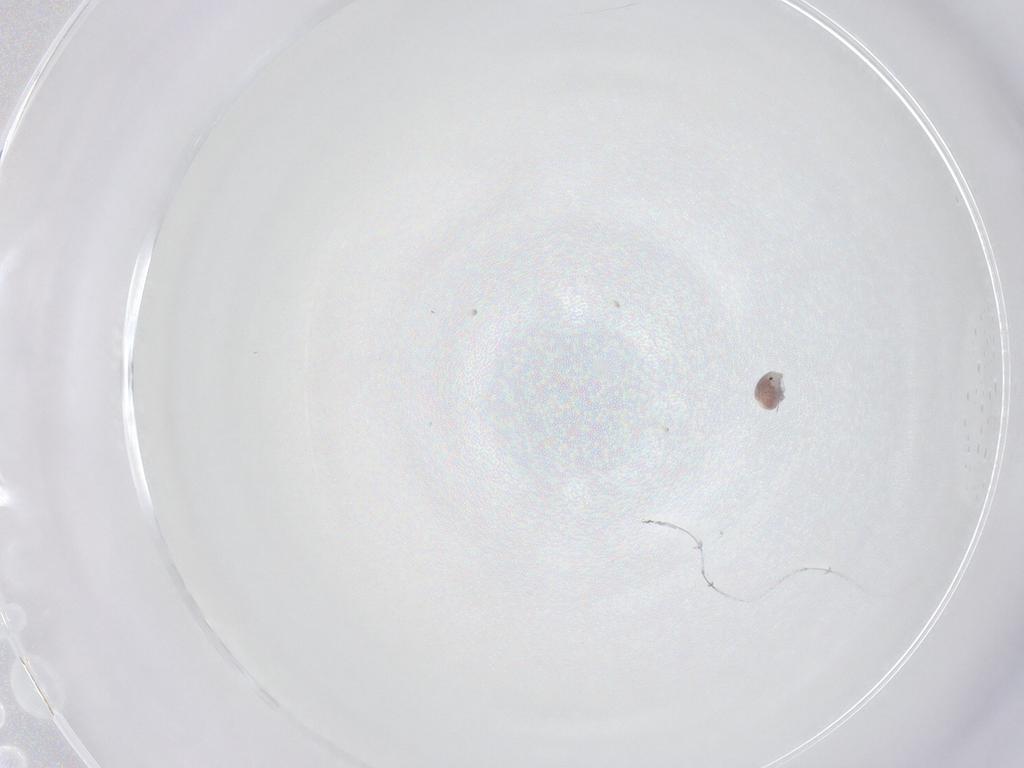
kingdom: Animalia
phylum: Arthropoda
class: Arachnida
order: Trombidiformes
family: Pionidae
